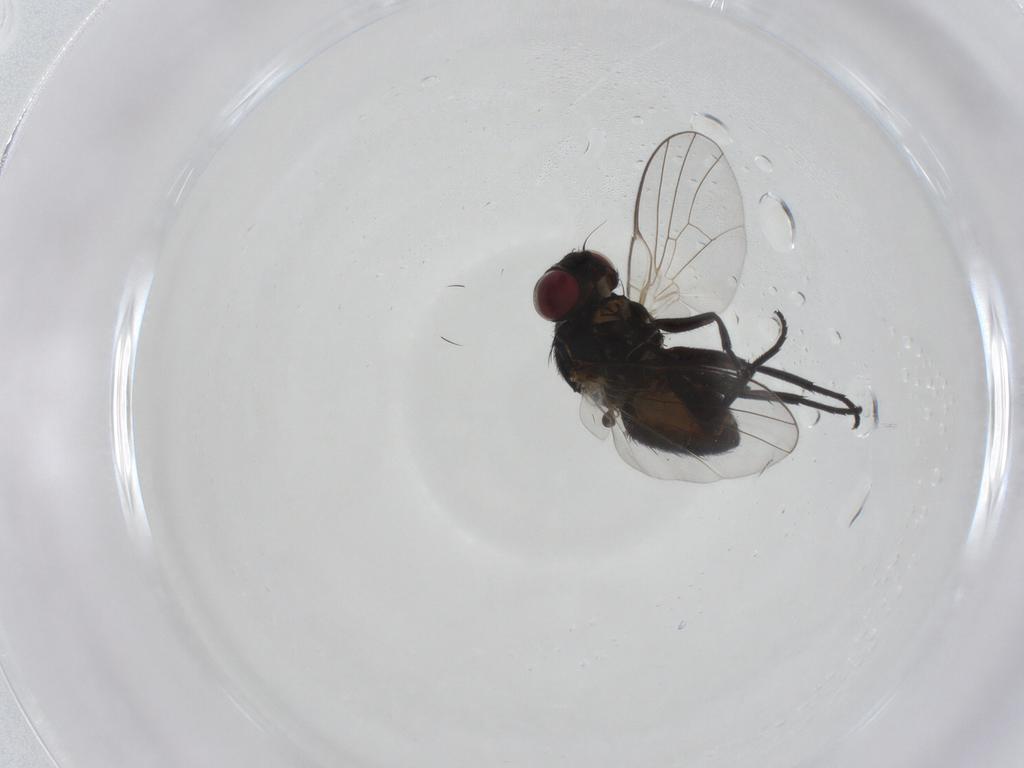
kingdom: Animalia
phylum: Arthropoda
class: Insecta
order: Diptera
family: Agromyzidae
